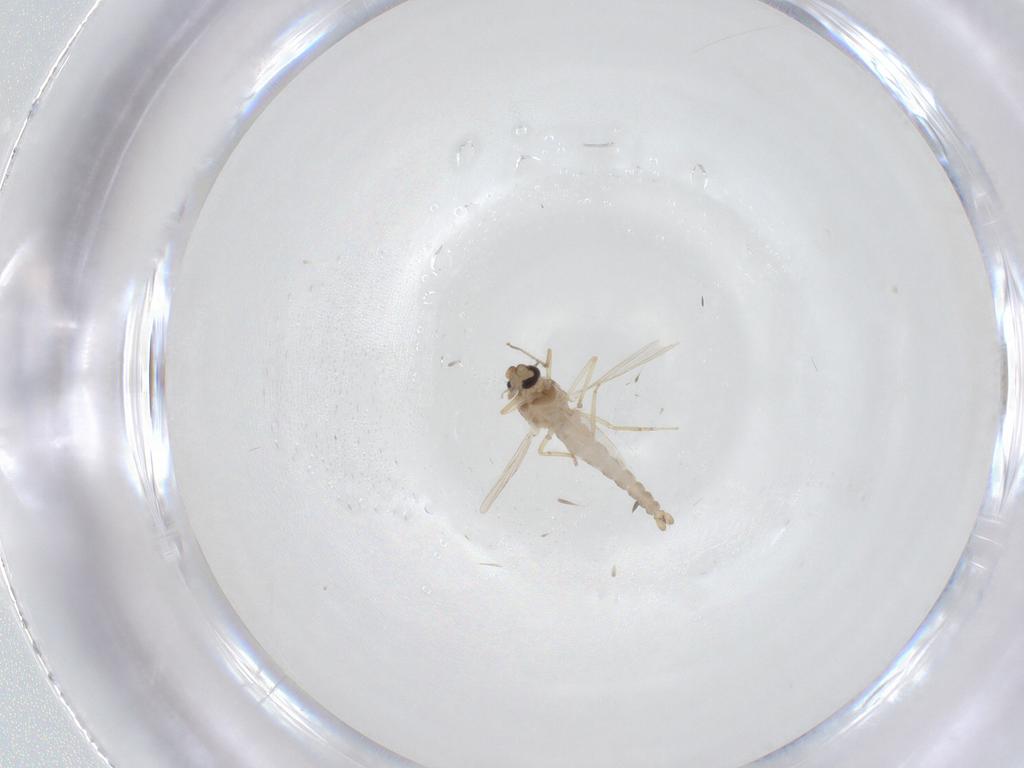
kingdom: Animalia
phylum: Arthropoda
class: Insecta
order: Diptera
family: Ceratopogonidae
